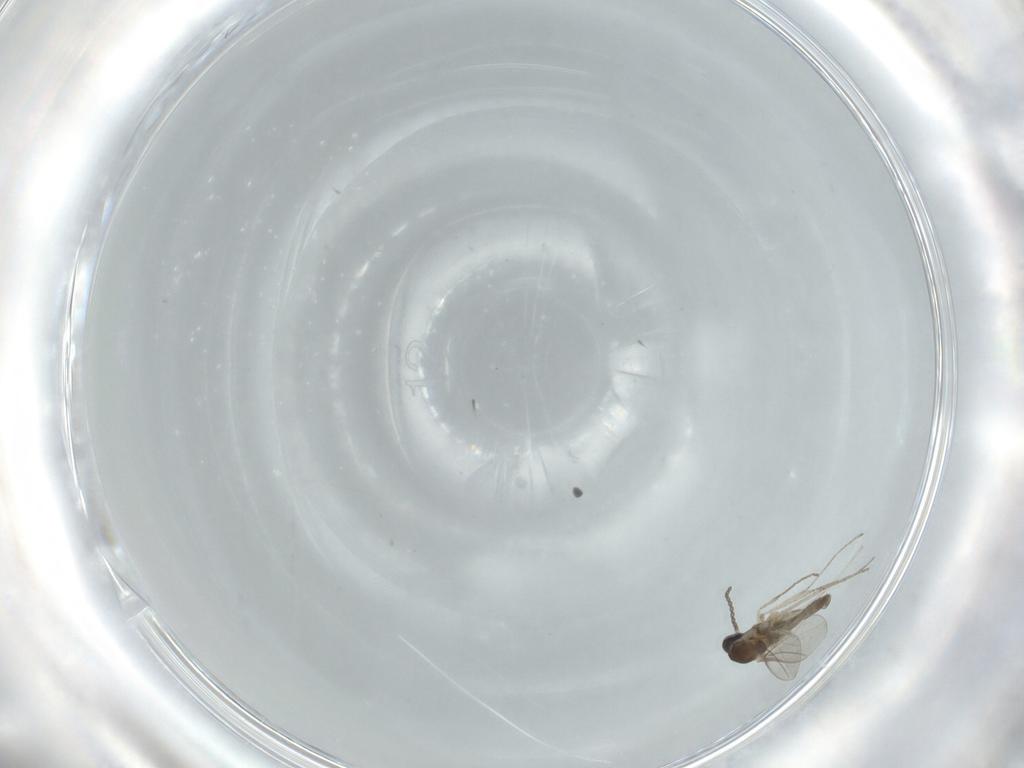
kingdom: Animalia
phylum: Arthropoda
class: Insecta
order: Diptera
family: Cecidomyiidae
